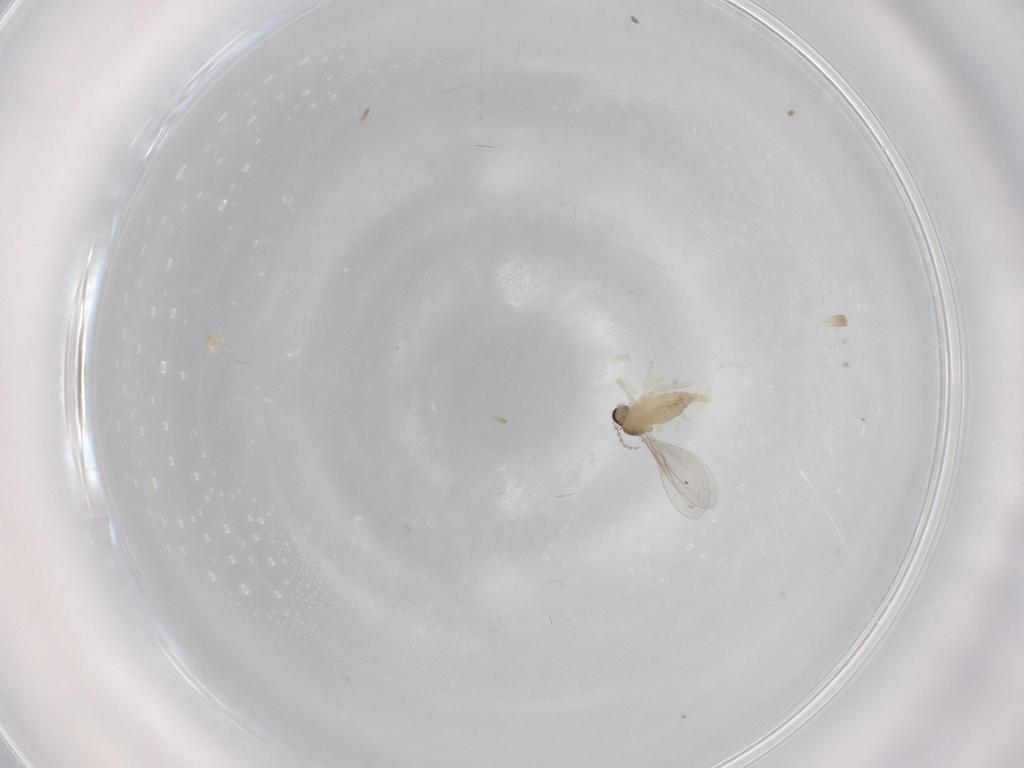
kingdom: Animalia
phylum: Arthropoda
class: Insecta
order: Diptera
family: Cecidomyiidae
